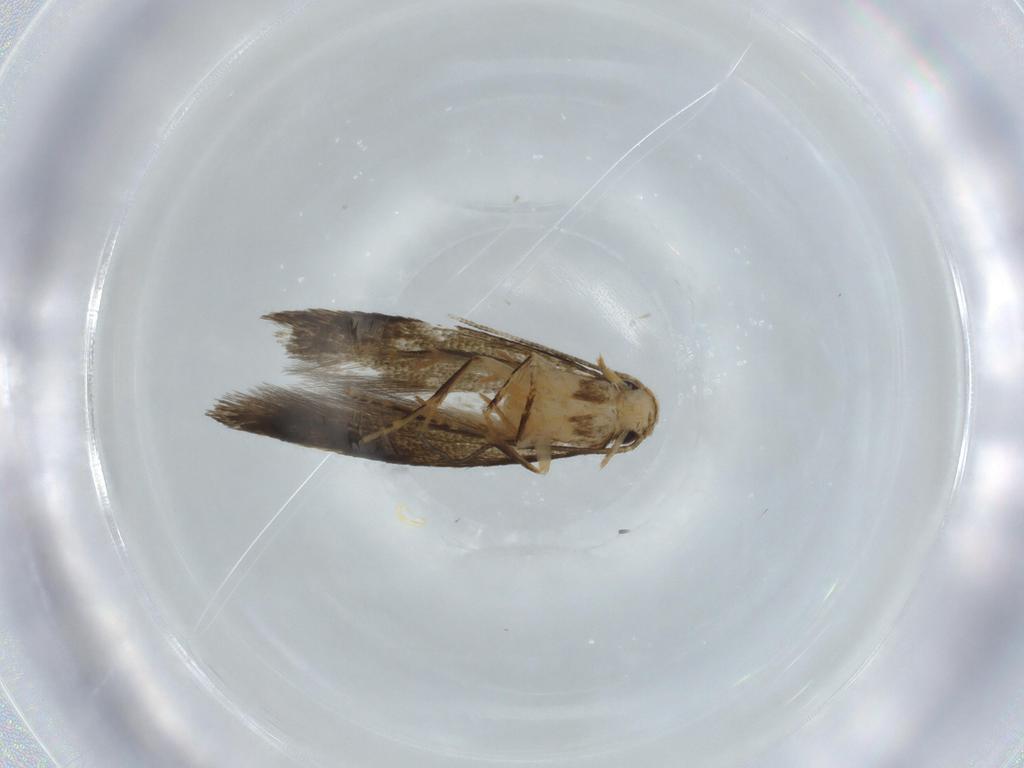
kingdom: Animalia
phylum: Arthropoda
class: Insecta
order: Lepidoptera
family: Tineidae
